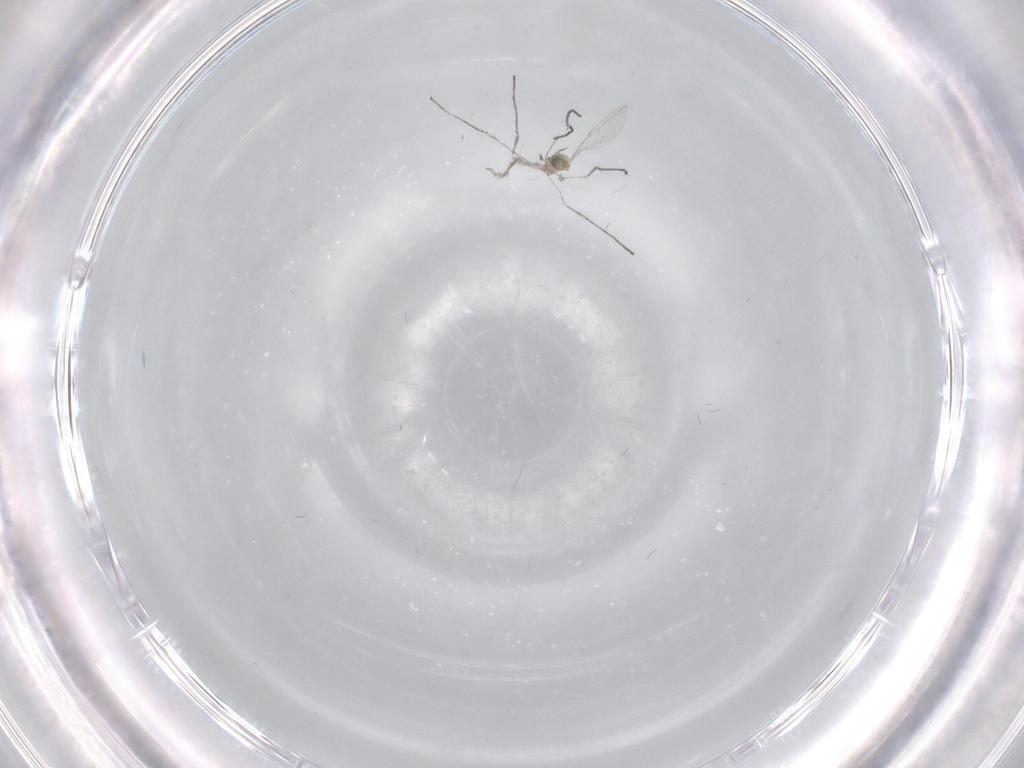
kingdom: Animalia
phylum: Arthropoda
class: Insecta
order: Diptera
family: Cecidomyiidae
